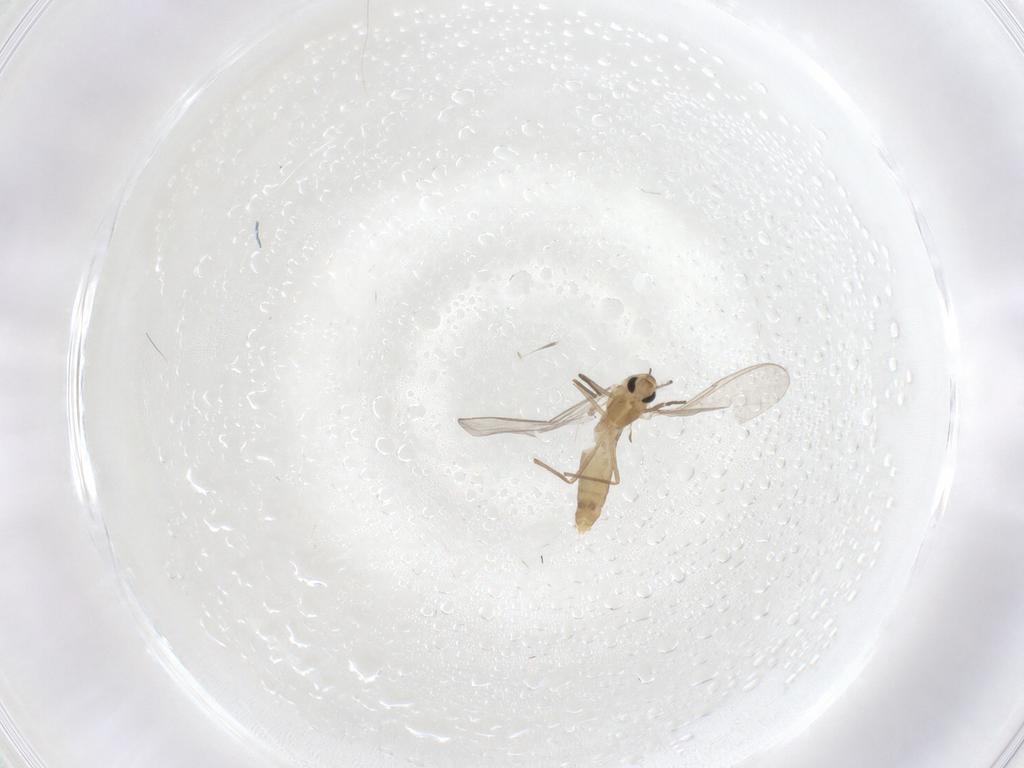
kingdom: Animalia
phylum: Arthropoda
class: Insecta
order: Diptera
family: Chironomidae
